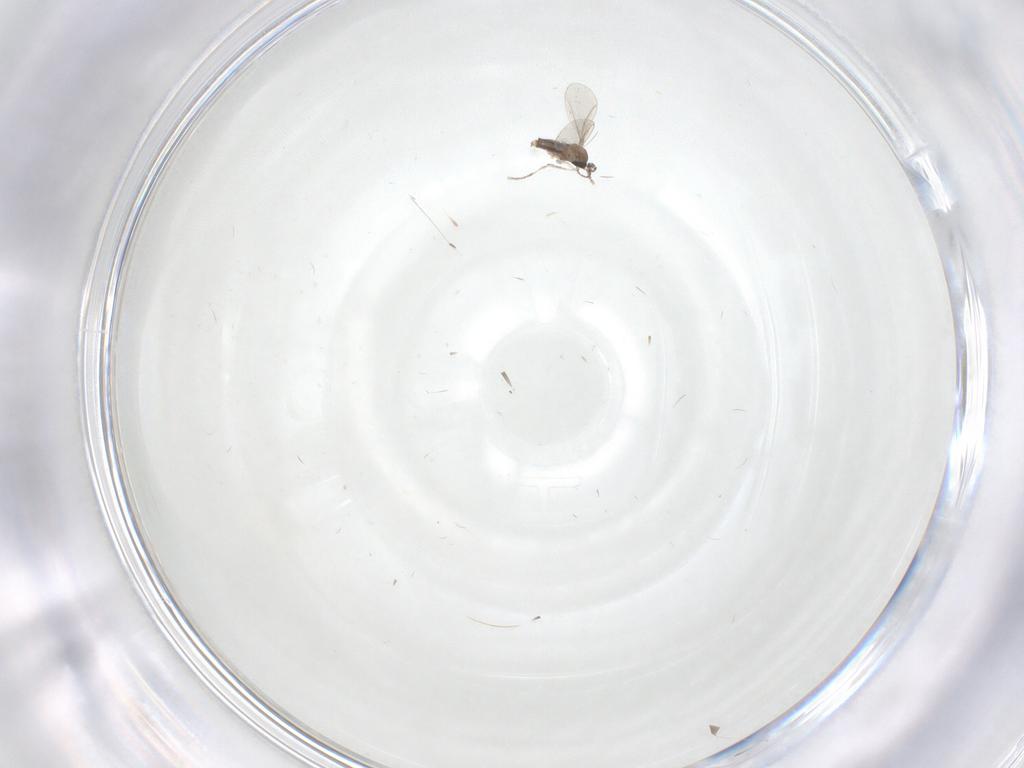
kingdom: Animalia
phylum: Arthropoda
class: Insecta
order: Diptera
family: Cecidomyiidae
